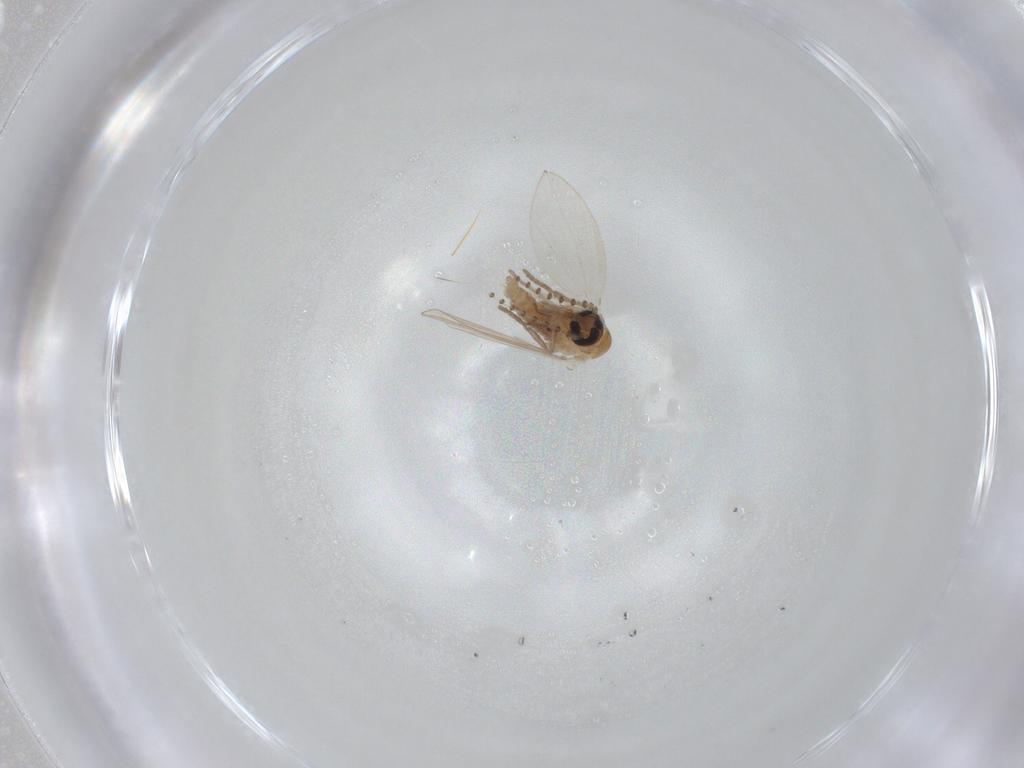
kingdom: Animalia
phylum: Arthropoda
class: Insecta
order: Diptera
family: Psychodidae
